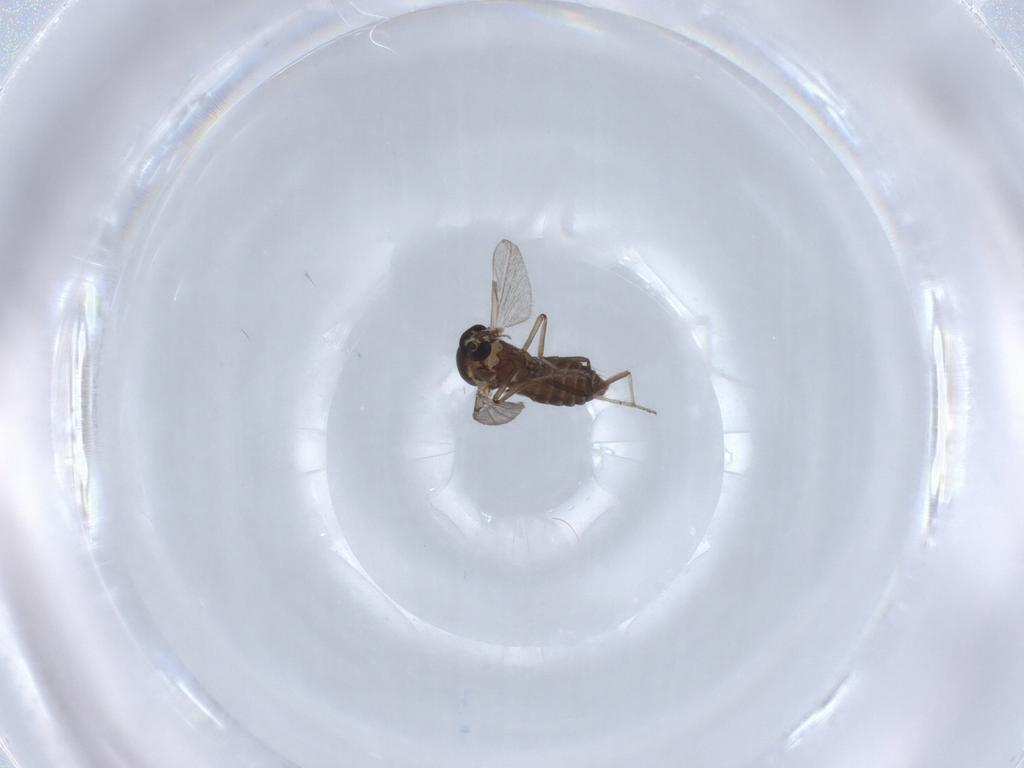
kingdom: Animalia
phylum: Arthropoda
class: Insecta
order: Diptera
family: Ceratopogonidae
